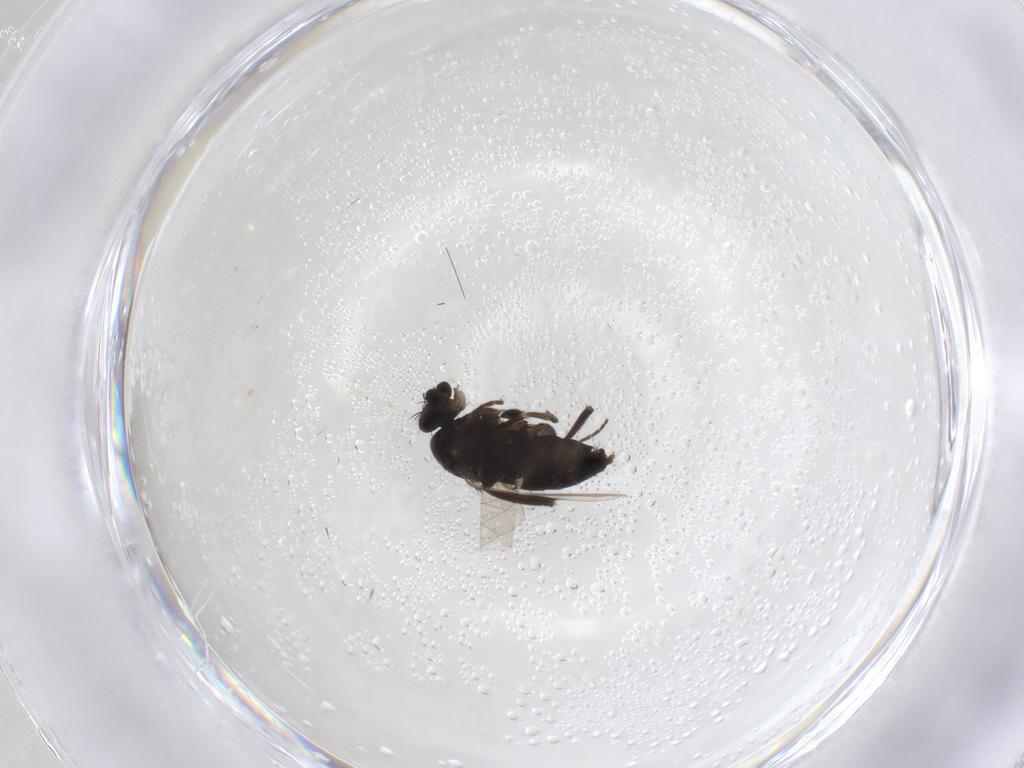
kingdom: Animalia
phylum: Arthropoda
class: Insecta
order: Diptera
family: Phoridae
